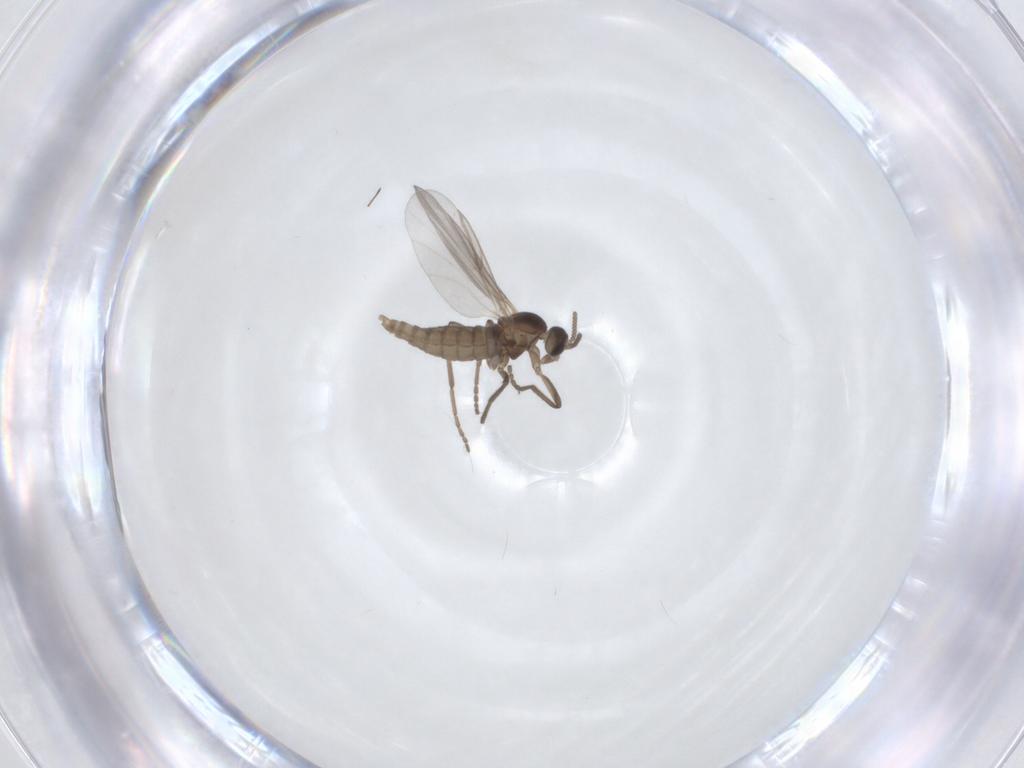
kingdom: Animalia
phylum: Arthropoda
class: Insecta
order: Diptera
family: Cecidomyiidae
